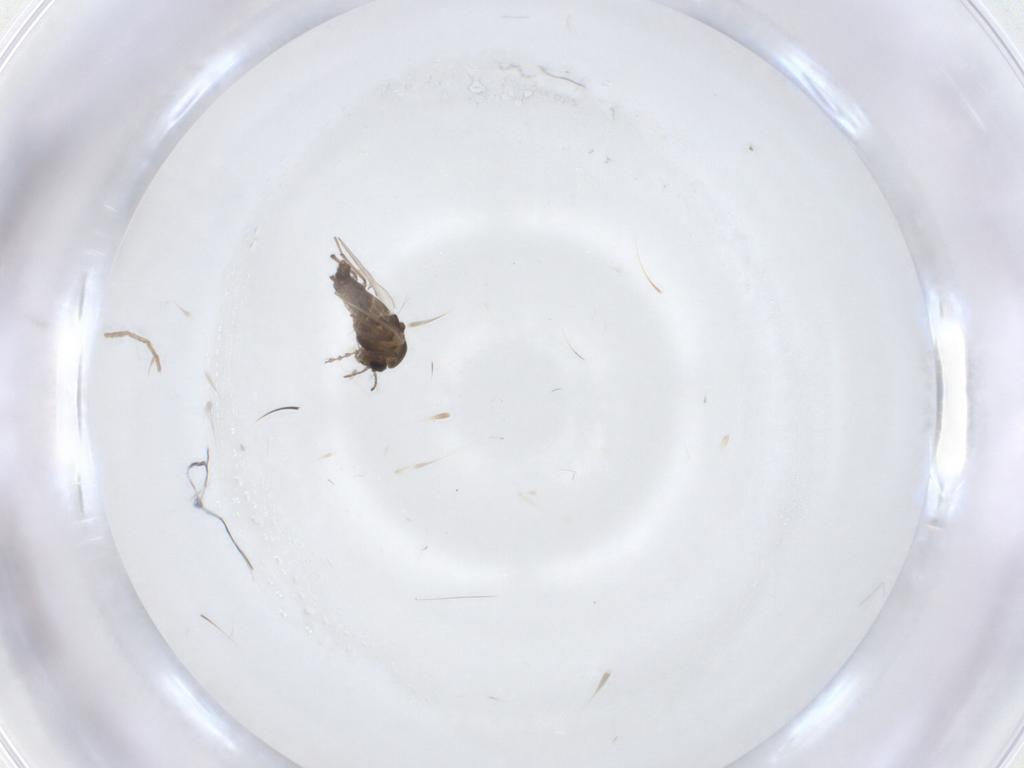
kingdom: Animalia
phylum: Arthropoda
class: Insecta
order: Diptera
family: Chironomidae
